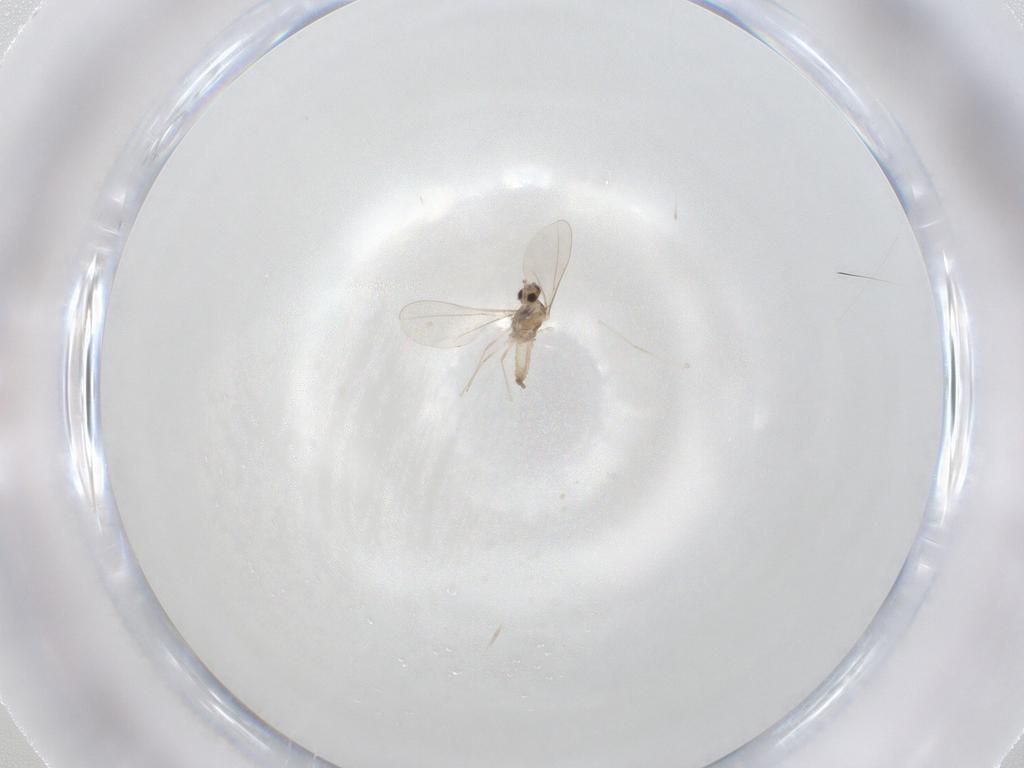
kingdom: Animalia
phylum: Arthropoda
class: Insecta
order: Diptera
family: Cecidomyiidae
